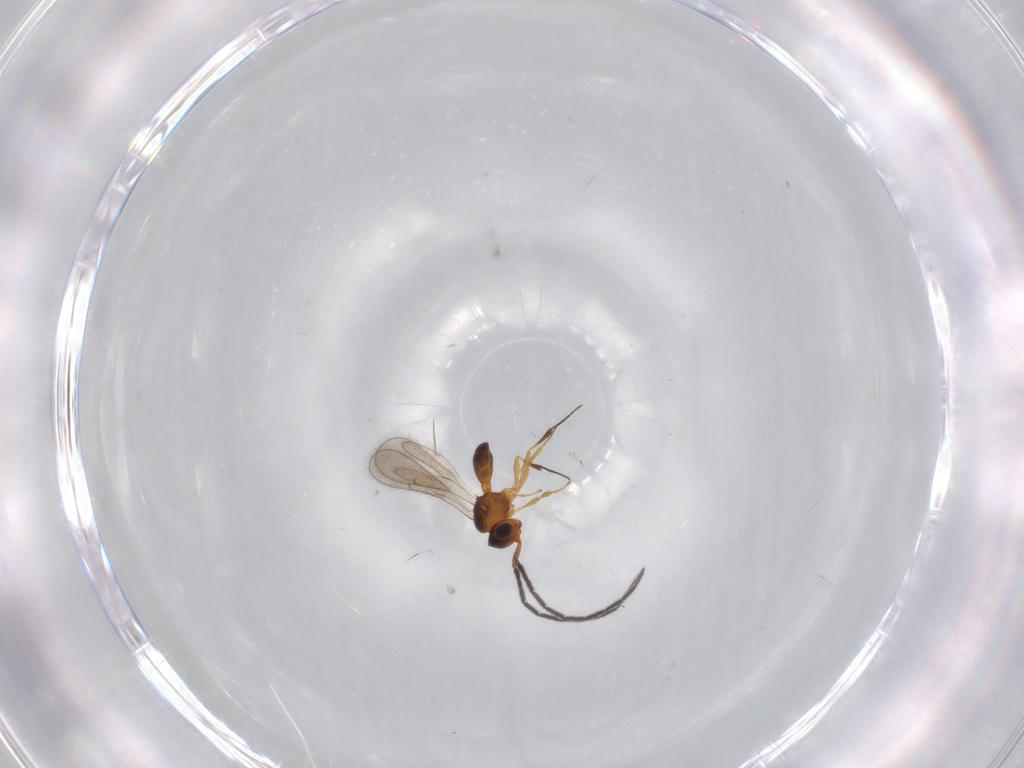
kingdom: Animalia
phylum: Arthropoda
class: Insecta
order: Hymenoptera
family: Scelionidae
